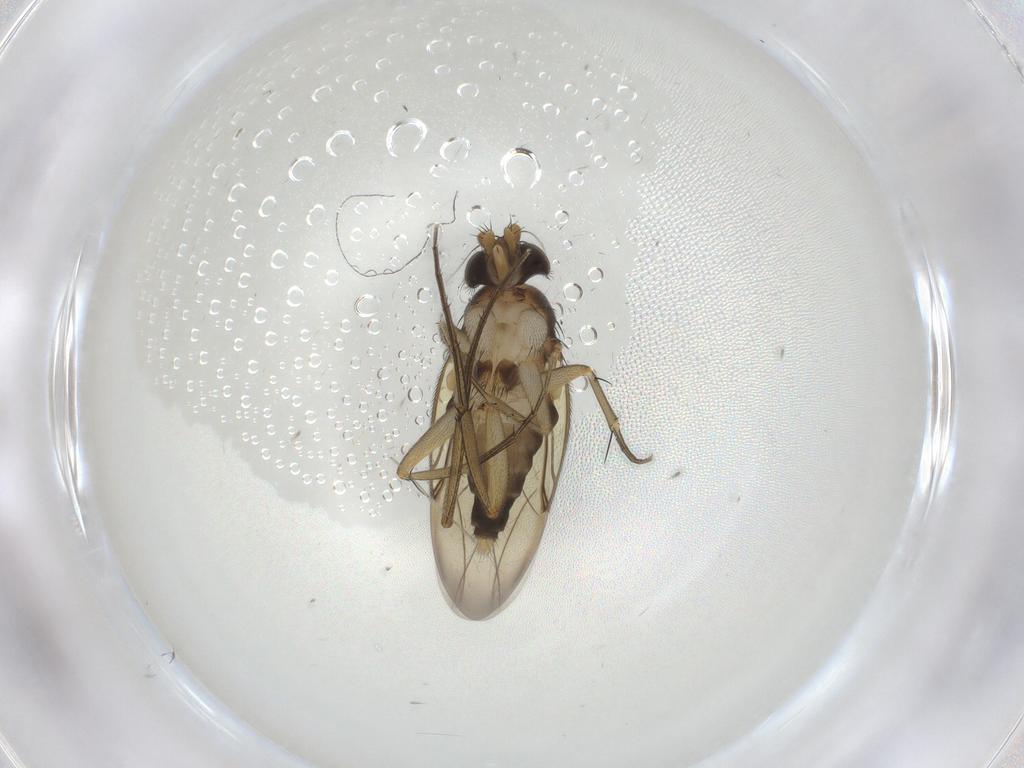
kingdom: Animalia
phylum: Arthropoda
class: Insecta
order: Diptera
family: Phoridae
